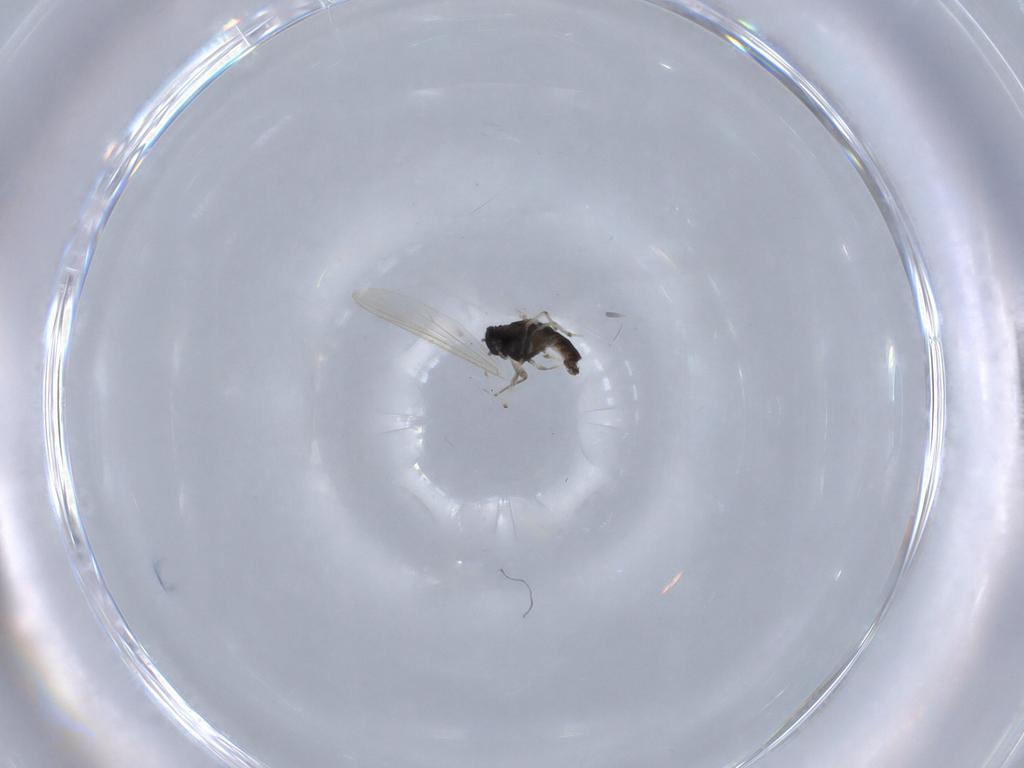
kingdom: Animalia
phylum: Arthropoda
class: Insecta
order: Diptera
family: Chironomidae
